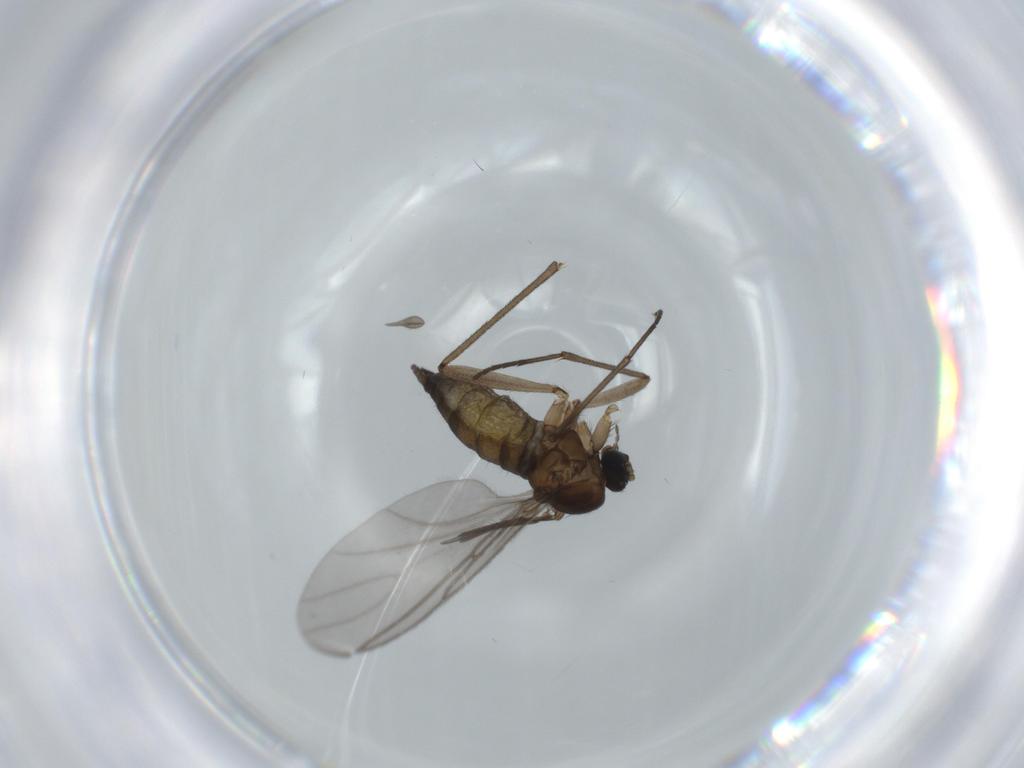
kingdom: Animalia
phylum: Arthropoda
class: Insecta
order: Diptera
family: Sciaridae
